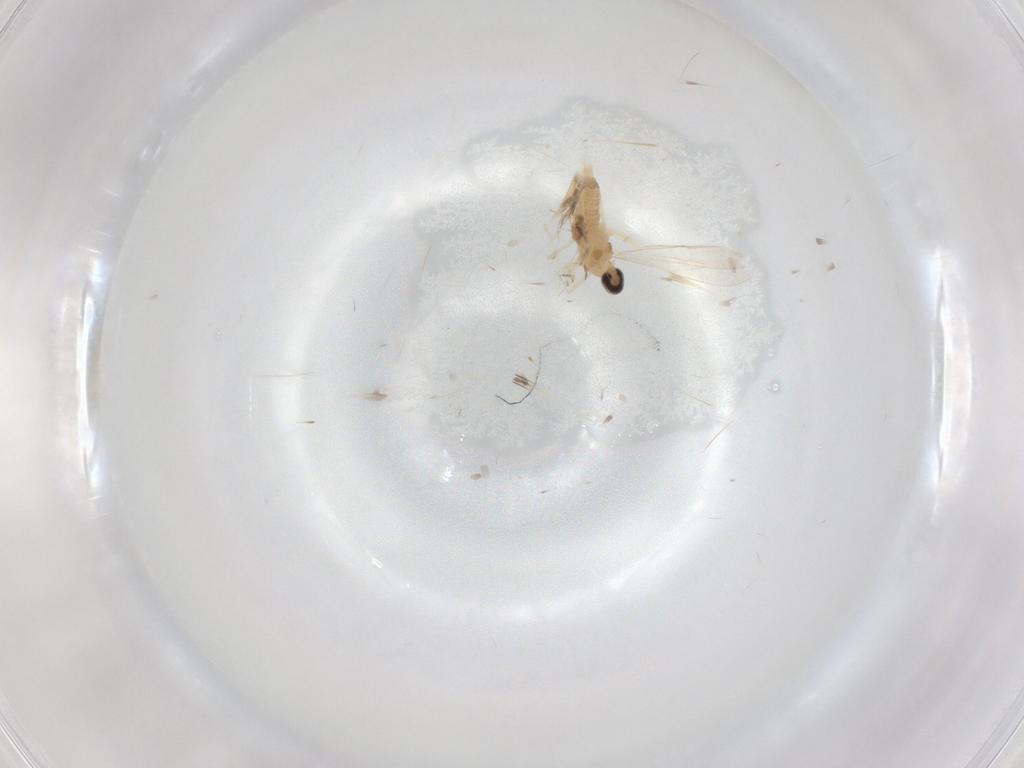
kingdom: Animalia
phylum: Arthropoda
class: Insecta
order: Diptera
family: Cecidomyiidae
